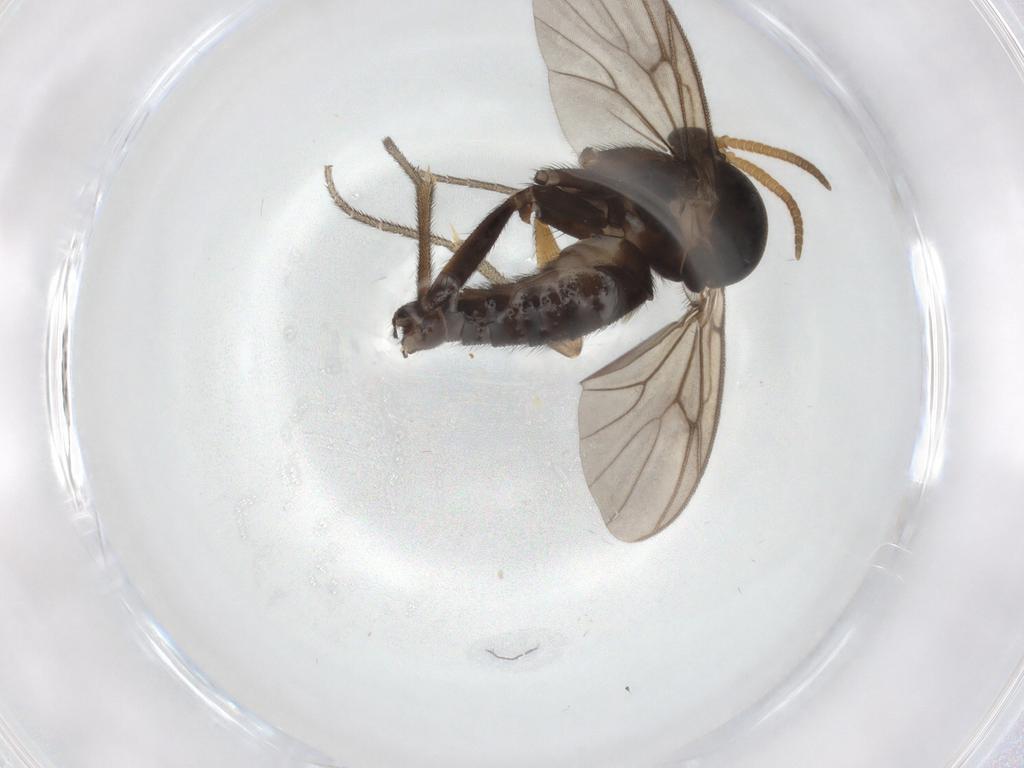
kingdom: Animalia
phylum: Arthropoda
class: Insecta
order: Diptera
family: Mycetophilidae
